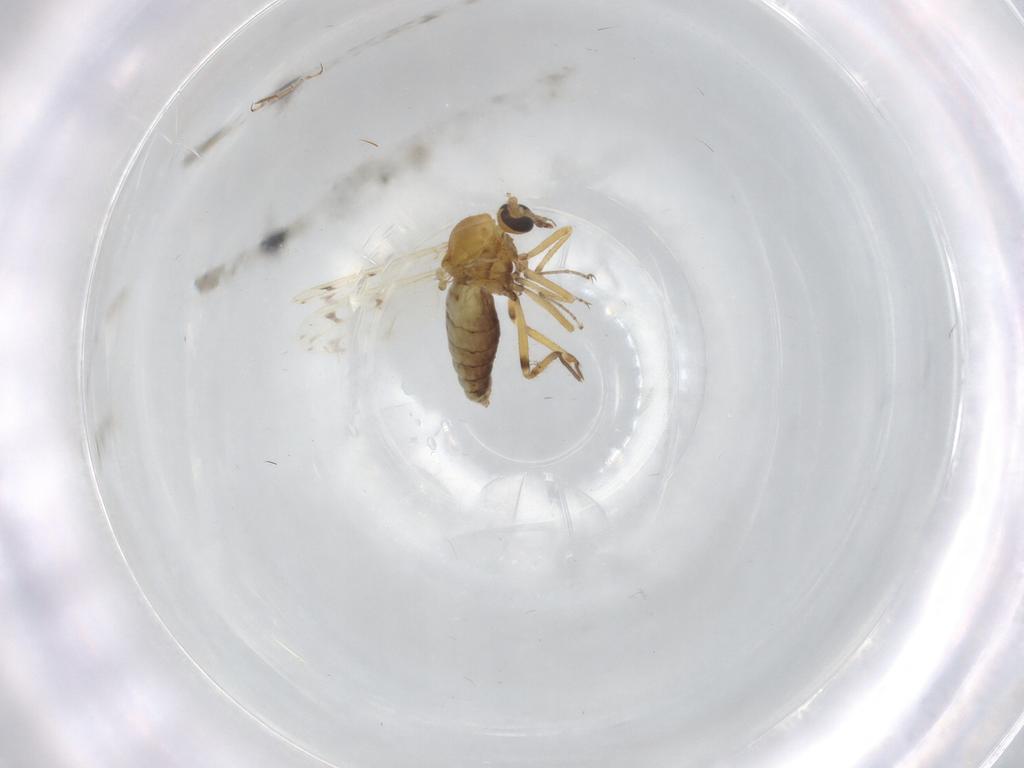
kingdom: Animalia
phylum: Arthropoda
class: Insecta
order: Diptera
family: Ceratopogonidae
